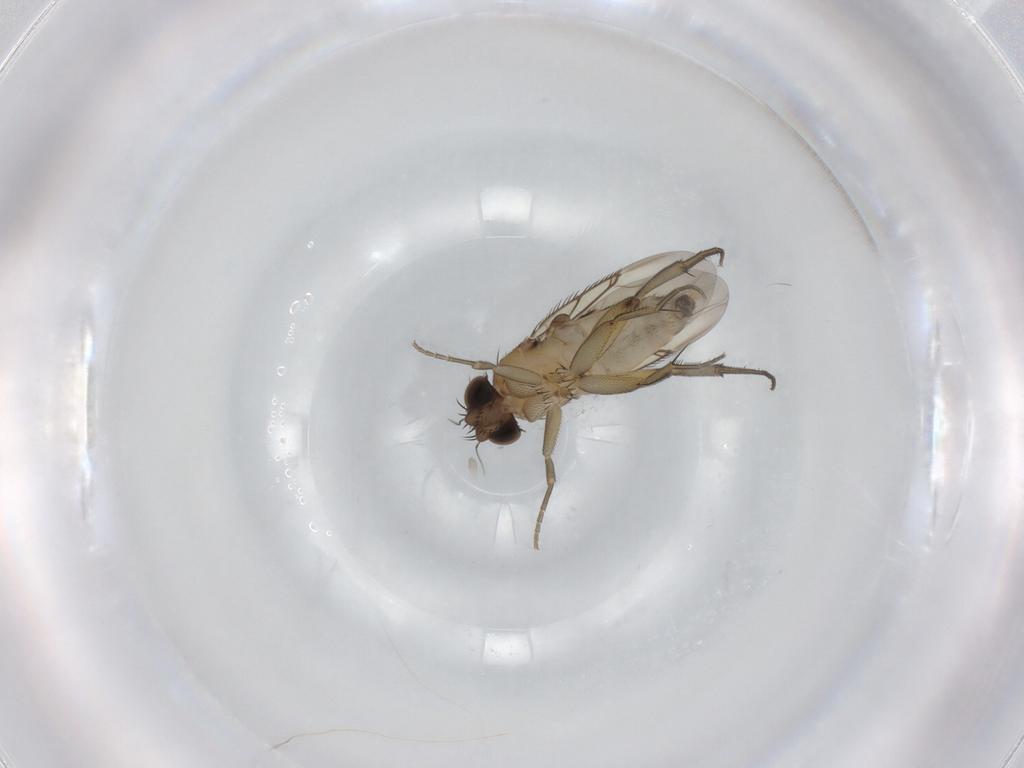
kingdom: Animalia
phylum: Arthropoda
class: Insecta
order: Diptera
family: Phoridae
